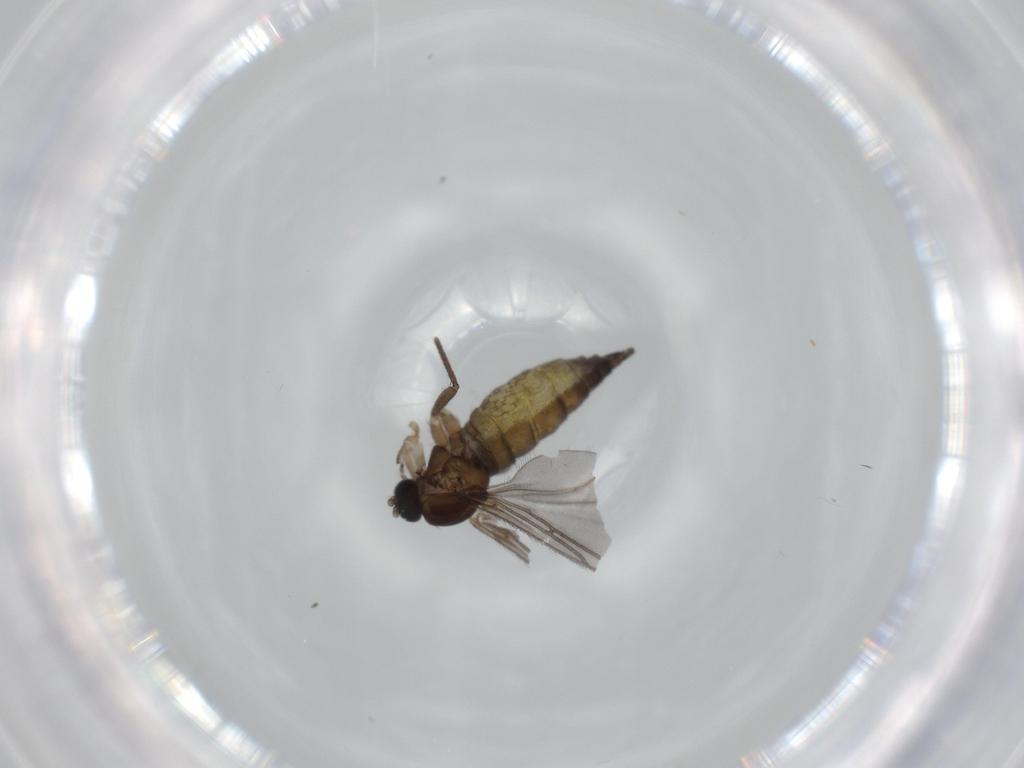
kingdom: Animalia
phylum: Arthropoda
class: Insecta
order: Diptera
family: Sciaridae
